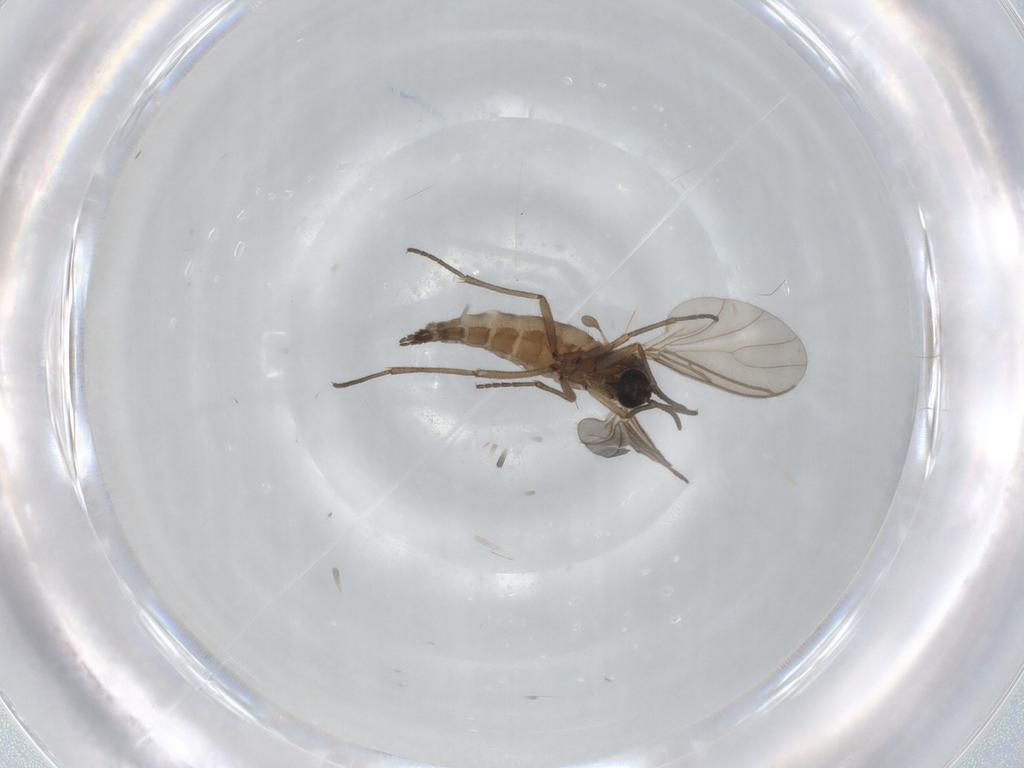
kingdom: Animalia
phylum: Arthropoda
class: Insecta
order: Diptera
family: Sciaridae
